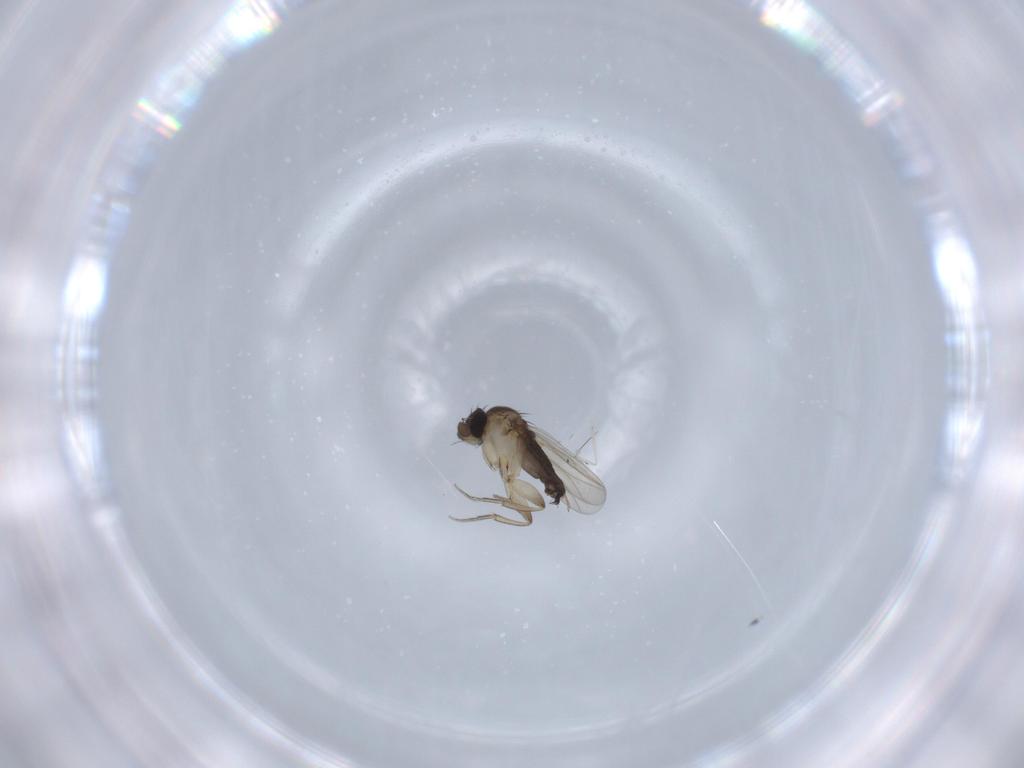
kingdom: Animalia
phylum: Arthropoda
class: Insecta
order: Diptera
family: Phoridae
